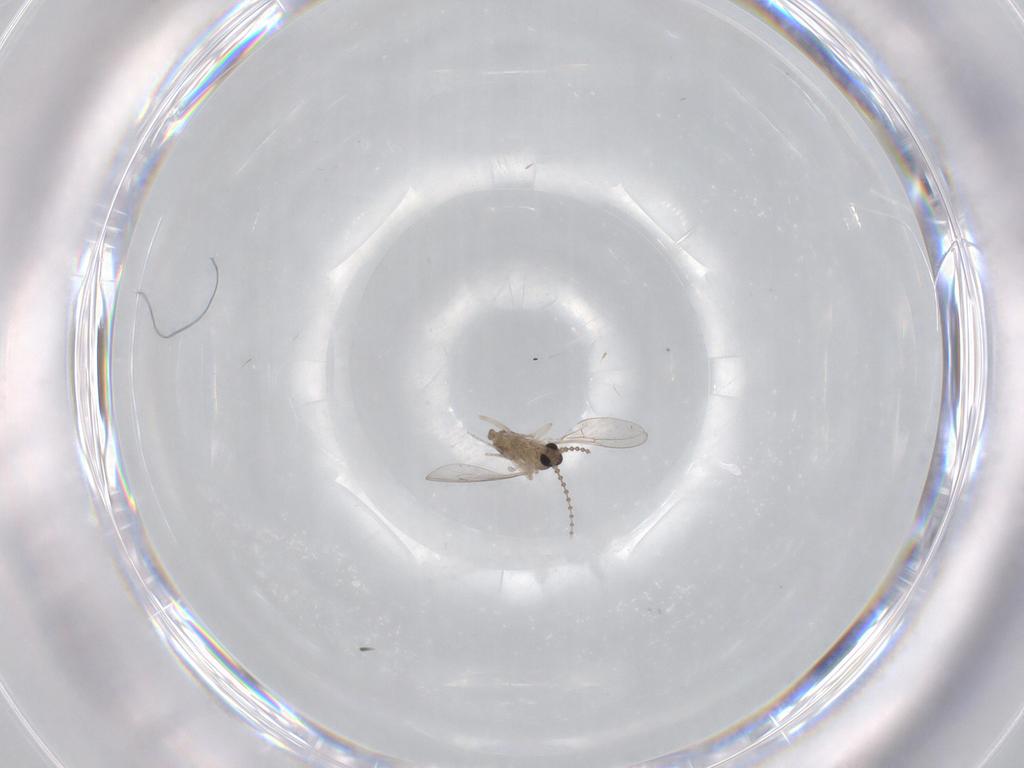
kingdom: Animalia
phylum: Arthropoda
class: Insecta
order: Diptera
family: Cecidomyiidae
